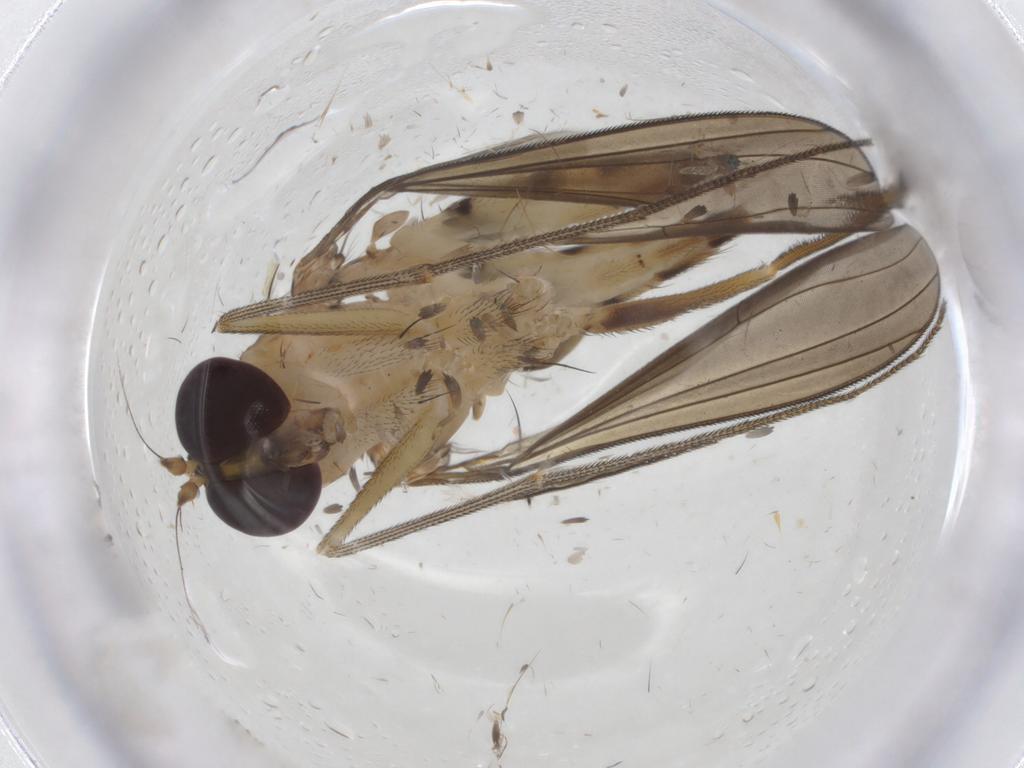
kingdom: Animalia
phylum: Arthropoda
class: Insecta
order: Diptera
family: Dolichopodidae
